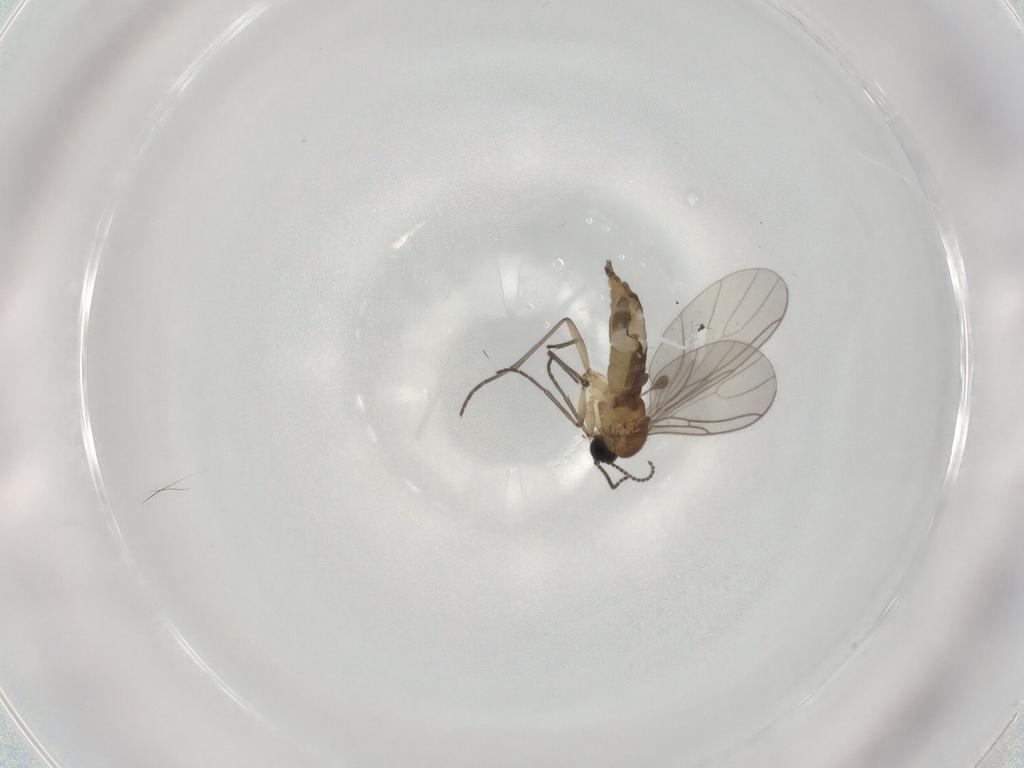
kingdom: Animalia
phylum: Arthropoda
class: Insecta
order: Diptera
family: Sciaridae
